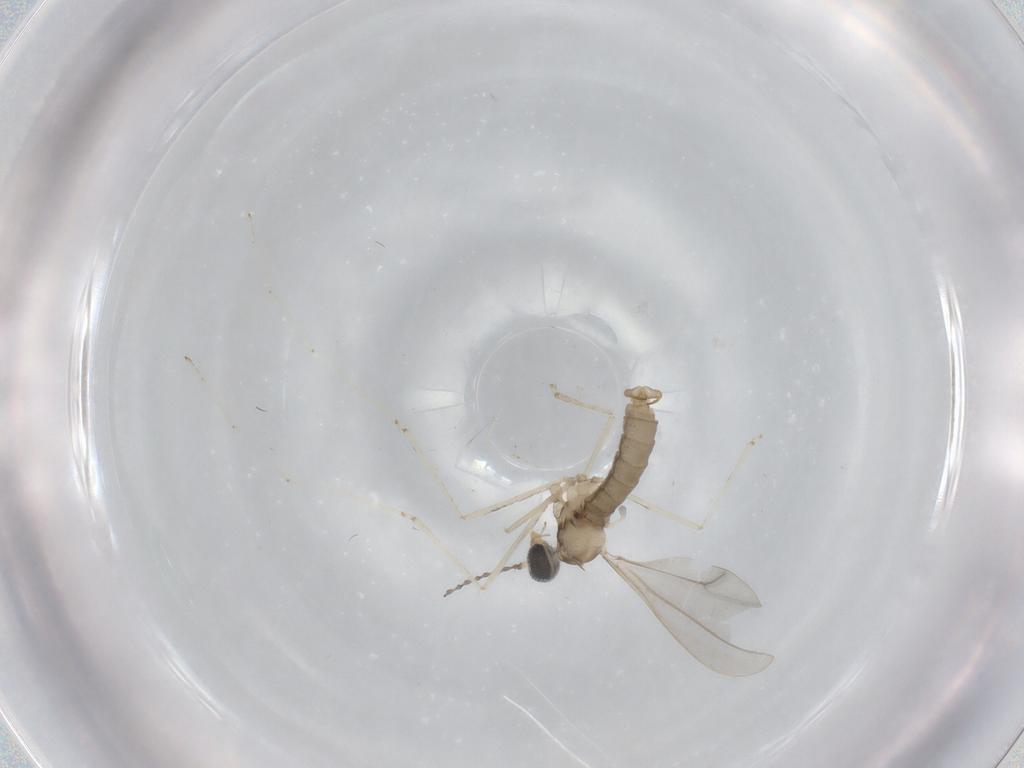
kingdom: Animalia
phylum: Arthropoda
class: Insecta
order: Diptera
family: Cecidomyiidae
